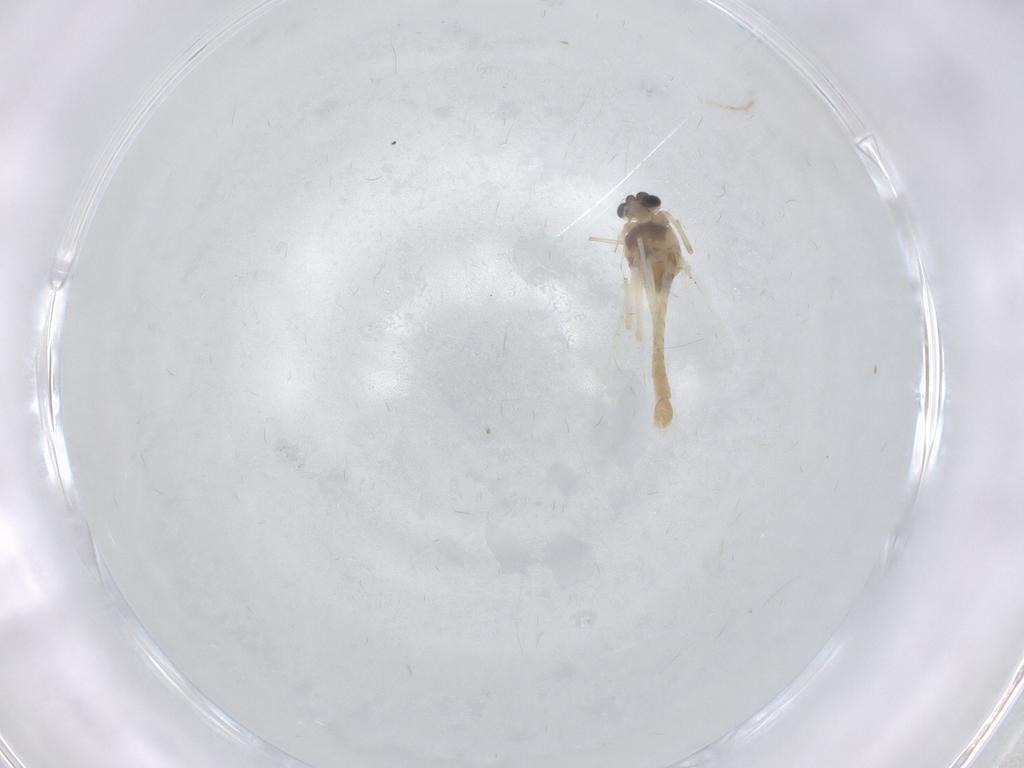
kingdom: Animalia
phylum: Arthropoda
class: Insecta
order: Diptera
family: Chironomidae
